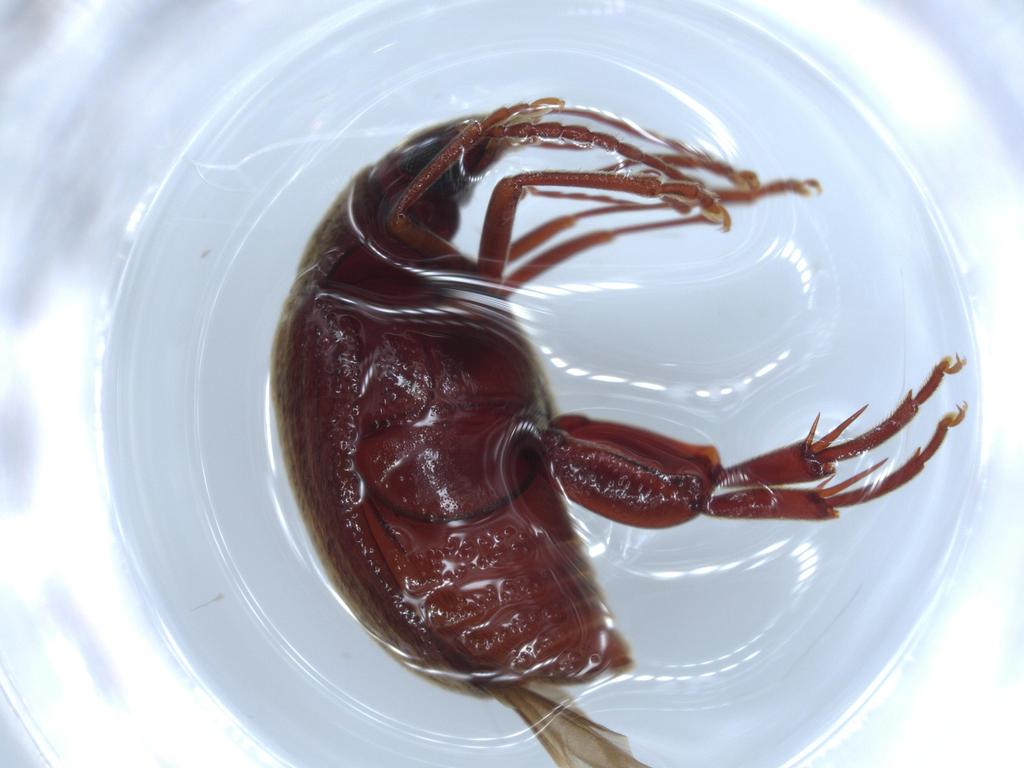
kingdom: Animalia
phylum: Arthropoda
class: Insecta
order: Coleoptera
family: Chrysomelidae
